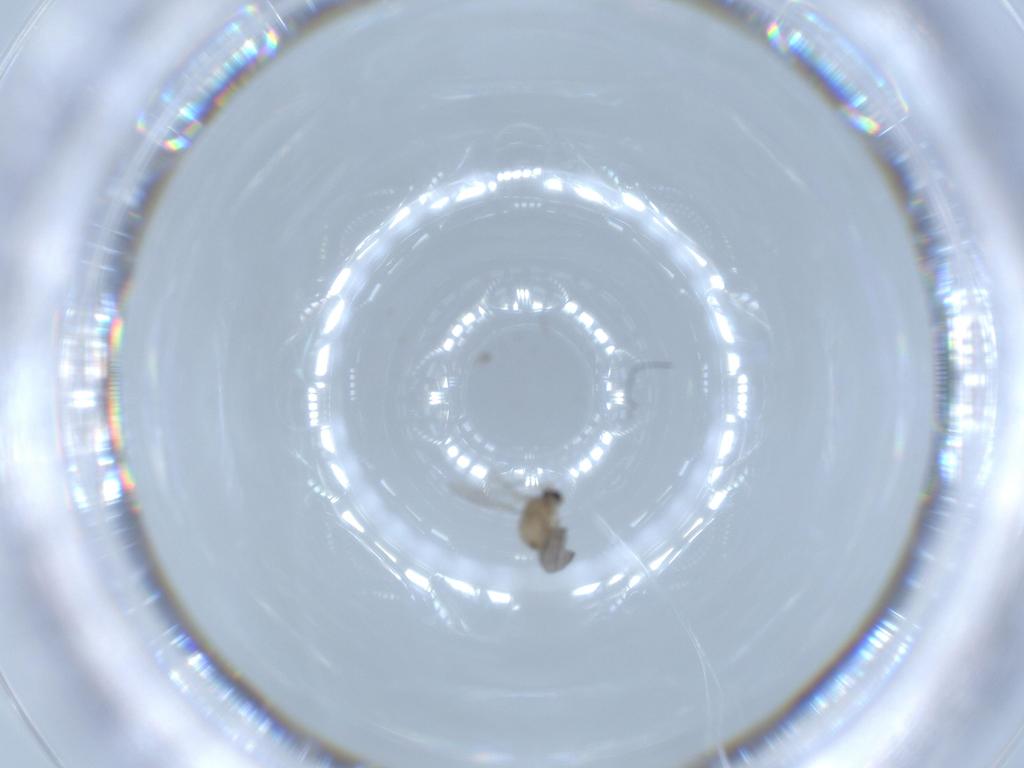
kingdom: Animalia
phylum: Arthropoda
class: Insecta
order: Diptera
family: Cecidomyiidae
